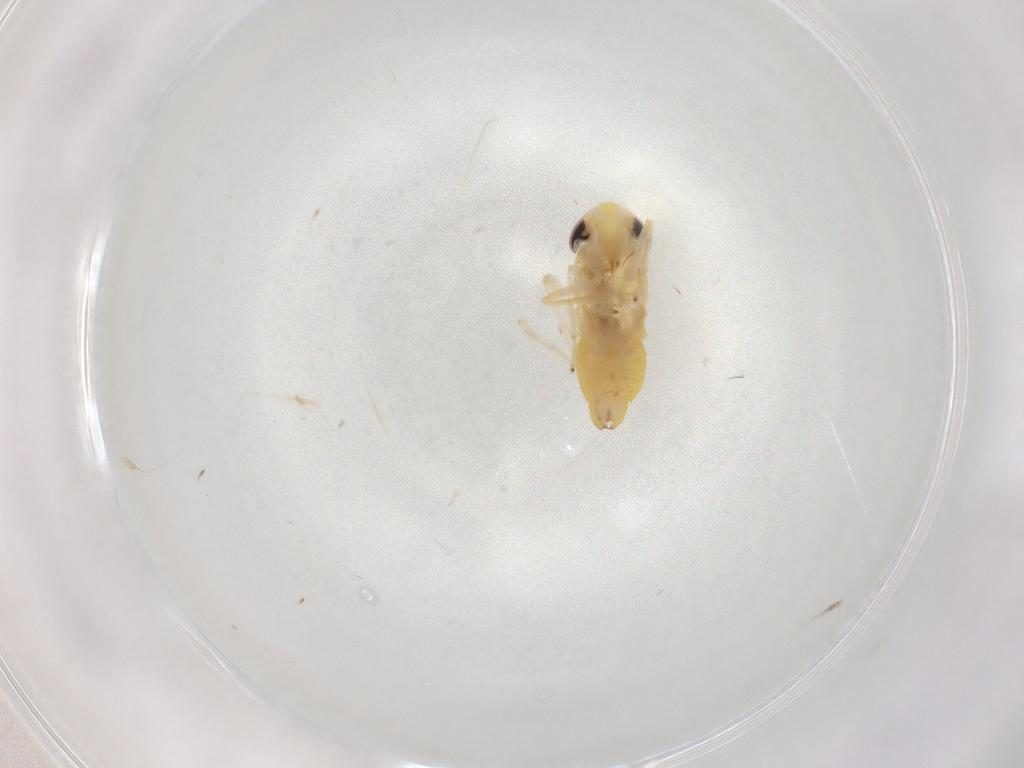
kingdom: Animalia
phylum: Arthropoda
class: Insecta
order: Hemiptera
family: Cicadellidae
